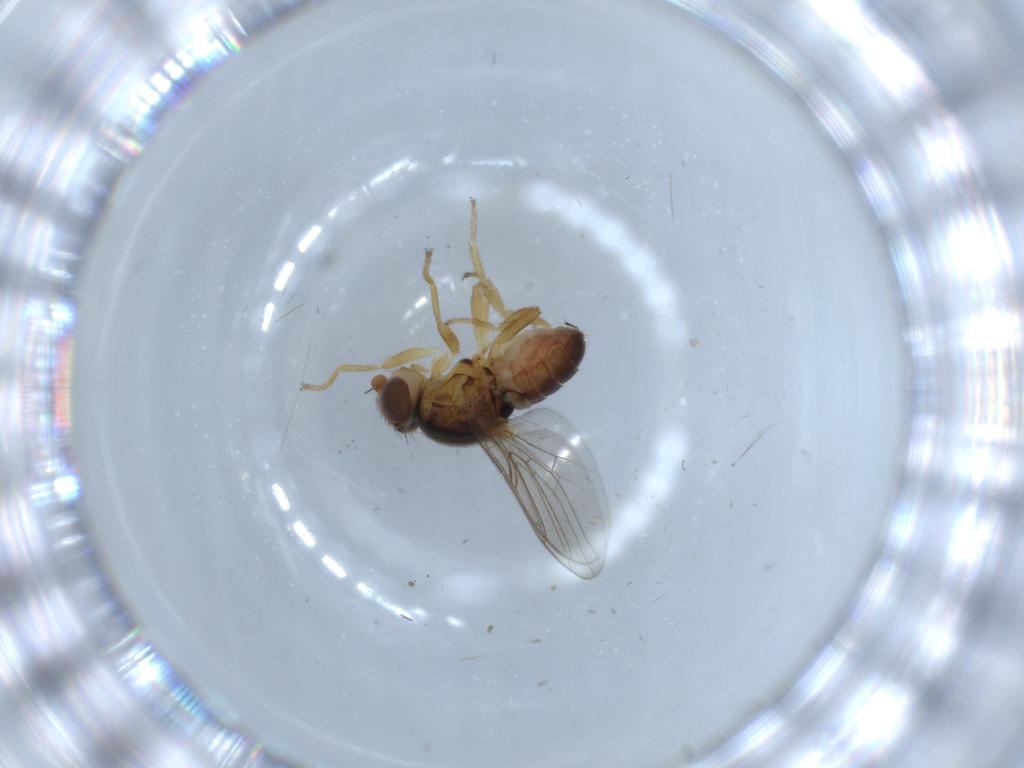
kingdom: Animalia
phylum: Arthropoda
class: Insecta
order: Diptera
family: Chloropidae
